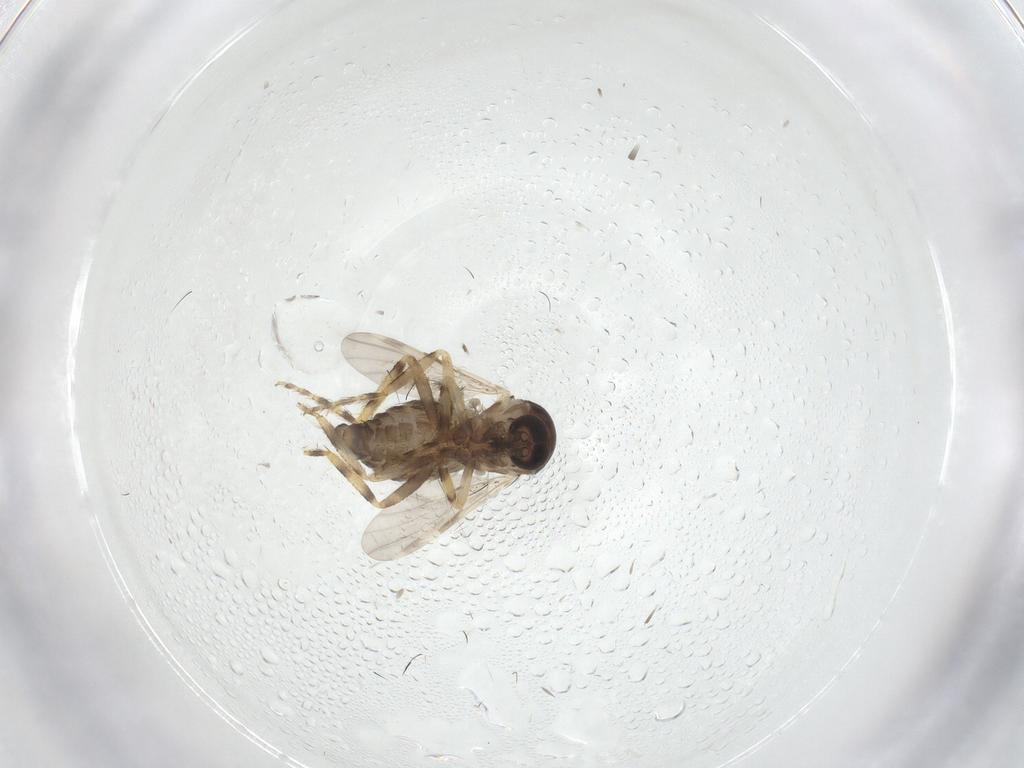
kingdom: Animalia
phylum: Arthropoda
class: Insecta
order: Diptera
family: Ceratopogonidae
